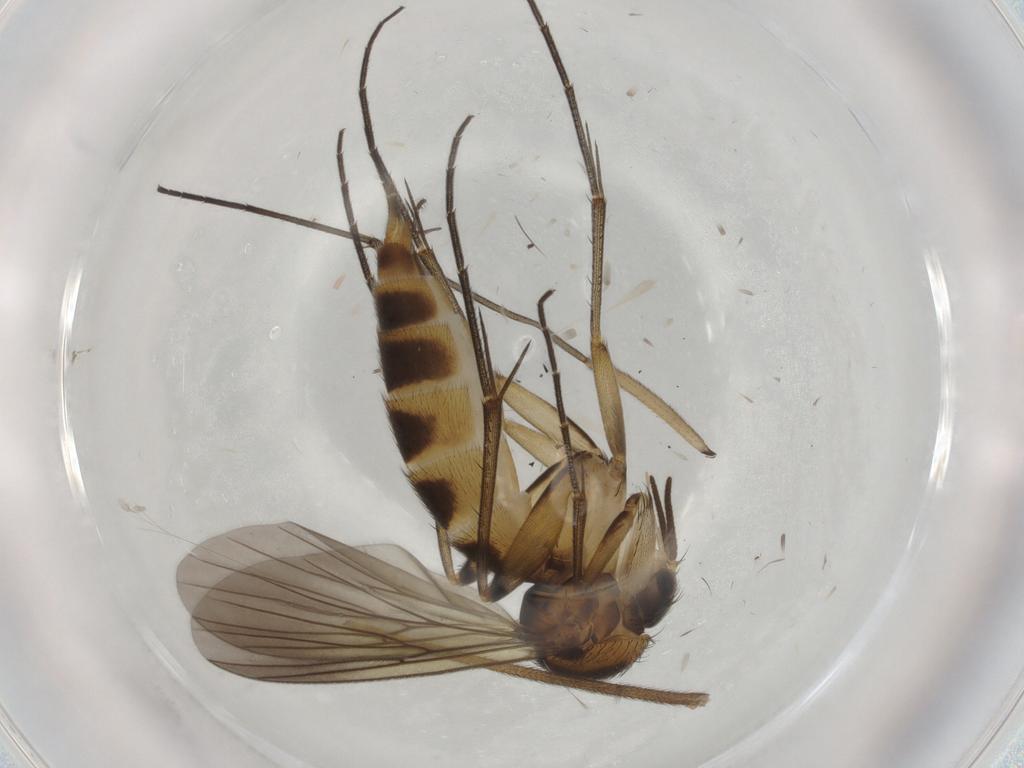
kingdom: Animalia
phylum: Arthropoda
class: Insecta
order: Diptera
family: Mycetophilidae
